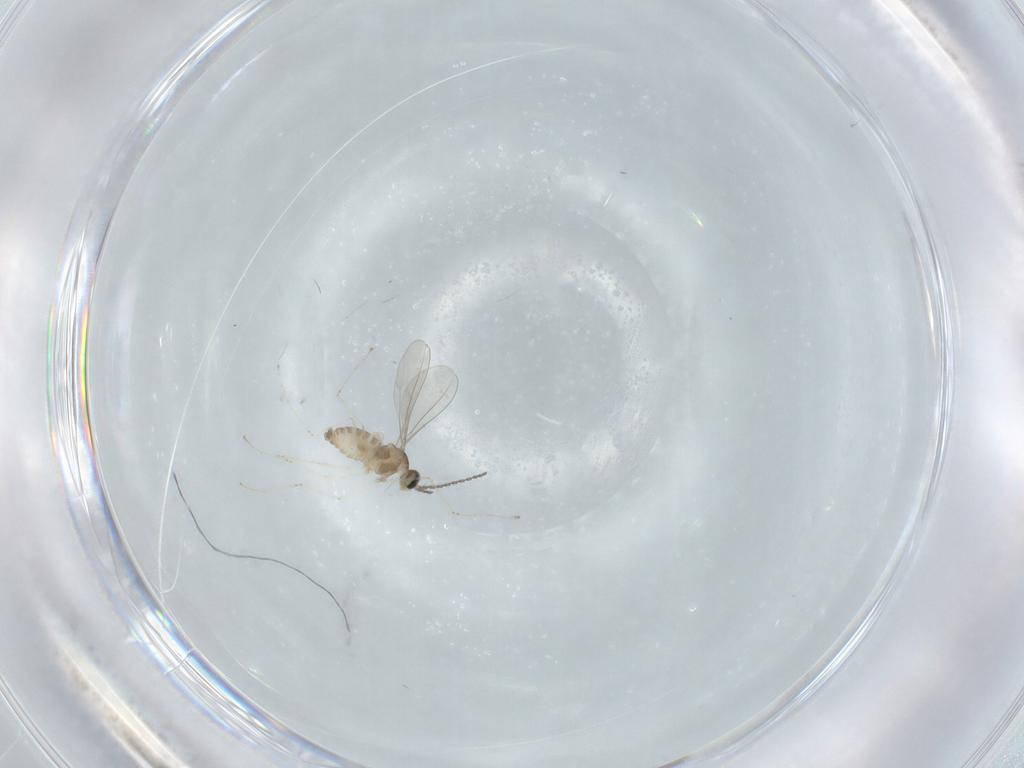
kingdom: Animalia
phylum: Arthropoda
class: Insecta
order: Diptera
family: Cecidomyiidae
